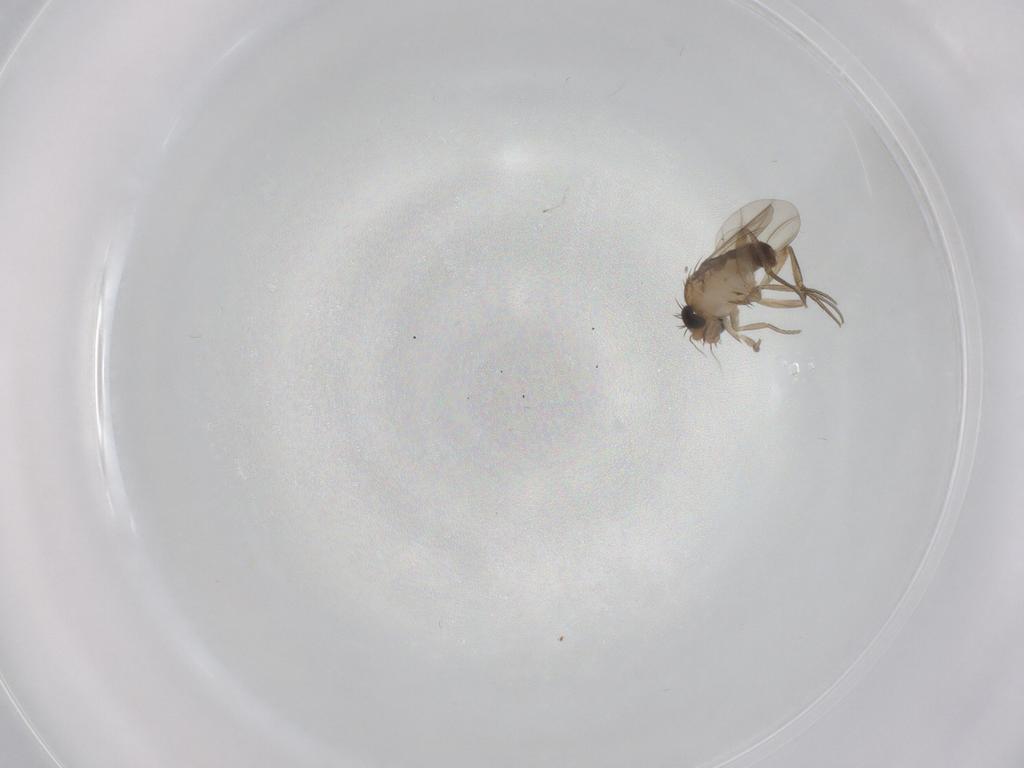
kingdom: Animalia
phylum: Arthropoda
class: Insecta
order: Diptera
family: Phoridae
